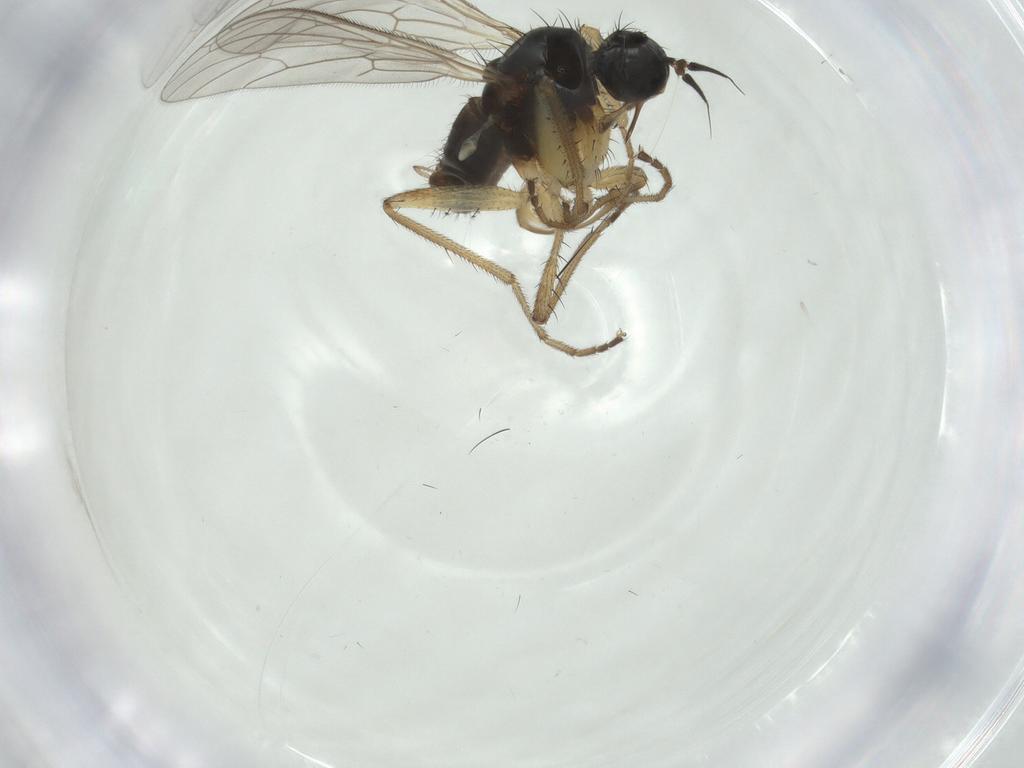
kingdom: Animalia
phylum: Arthropoda
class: Insecta
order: Diptera
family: Empididae
